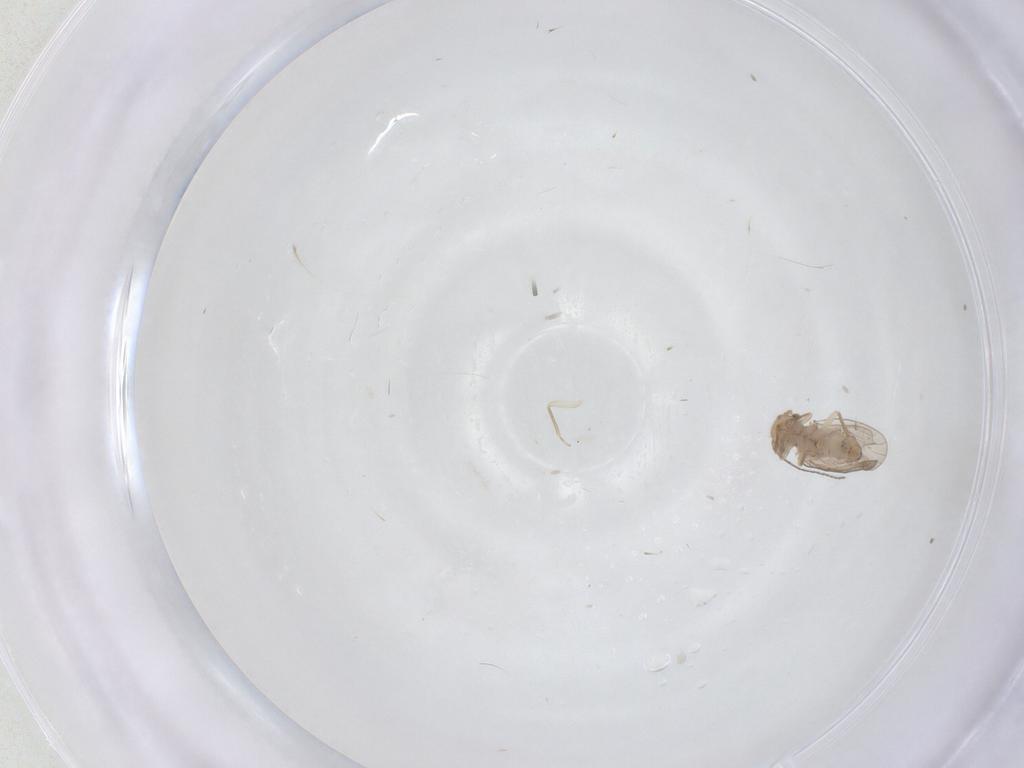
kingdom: Animalia
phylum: Arthropoda
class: Insecta
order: Psocodea
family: Ectopsocidae
